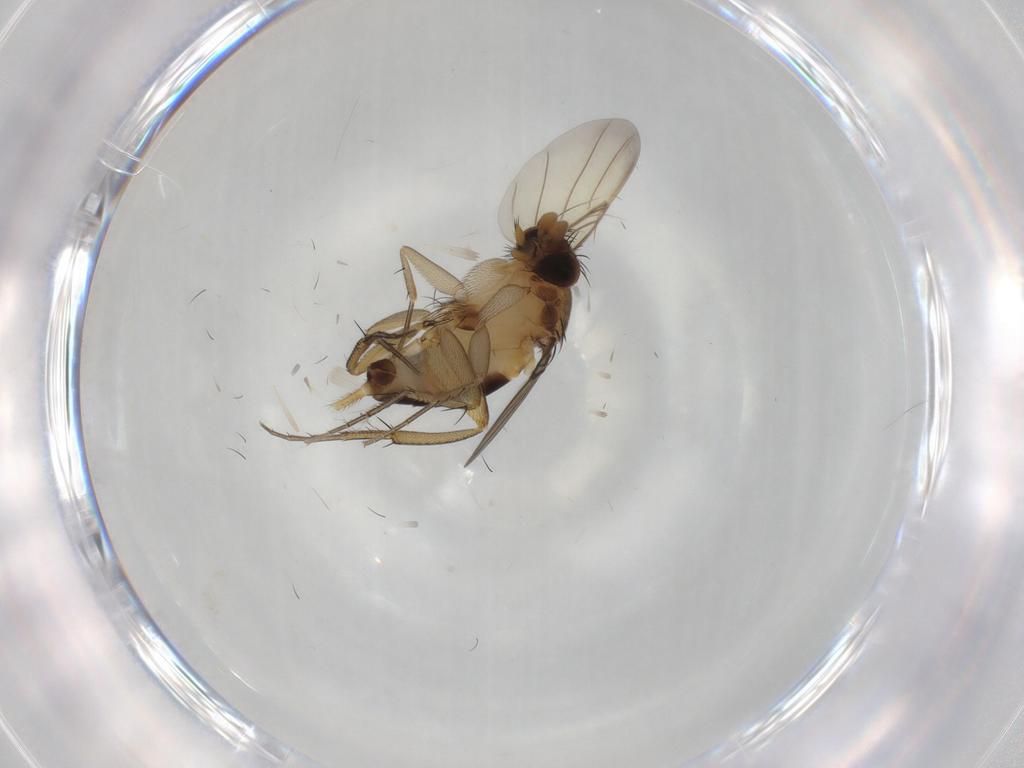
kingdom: Animalia
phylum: Arthropoda
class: Insecta
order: Diptera
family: Phoridae
